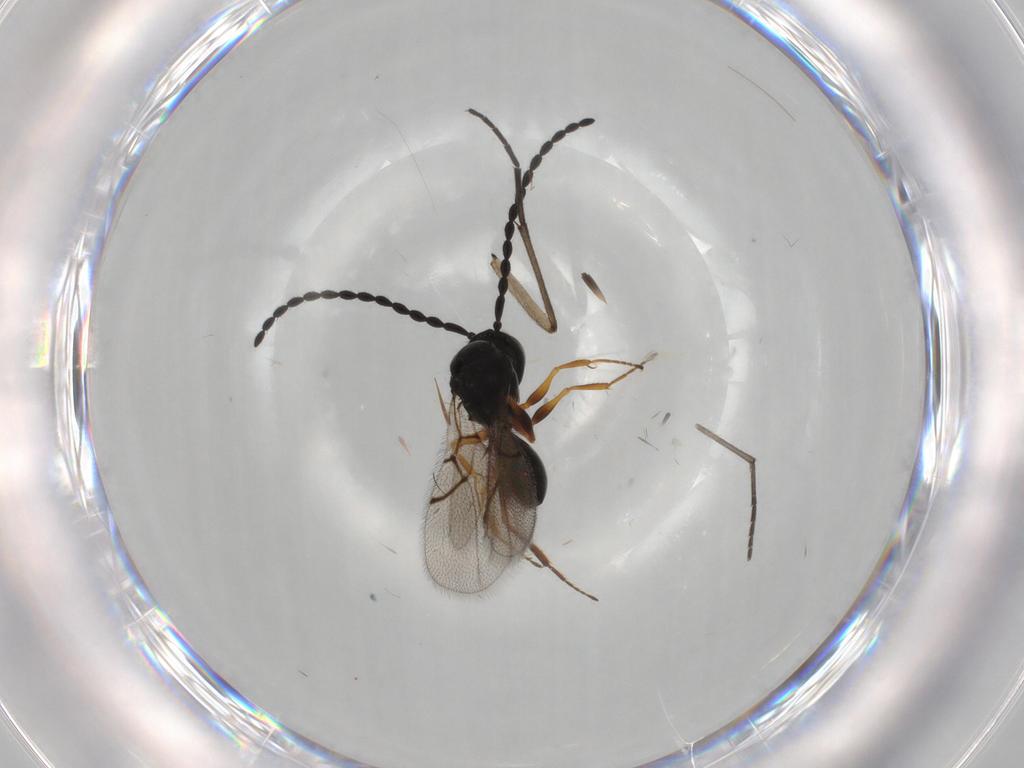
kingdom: Animalia
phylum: Arthropoda
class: Insecta
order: Hymenoptera
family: Figitidae
